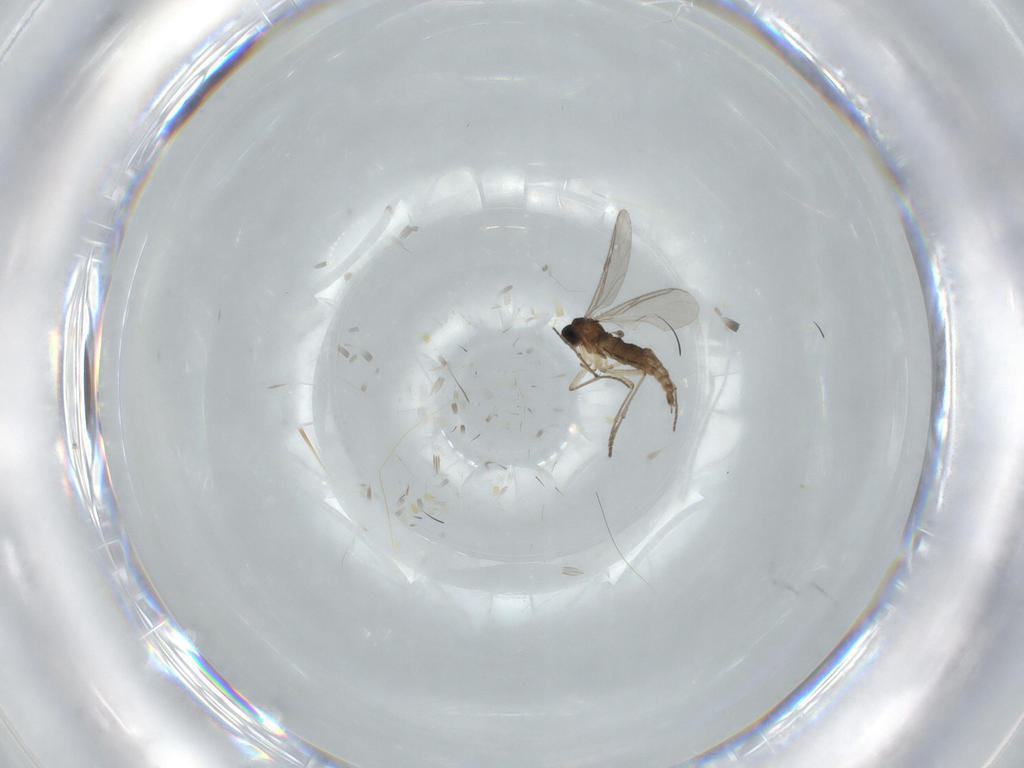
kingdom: Animalia
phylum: Arthropoda
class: Insecta
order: Diptera
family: Sciaridae
